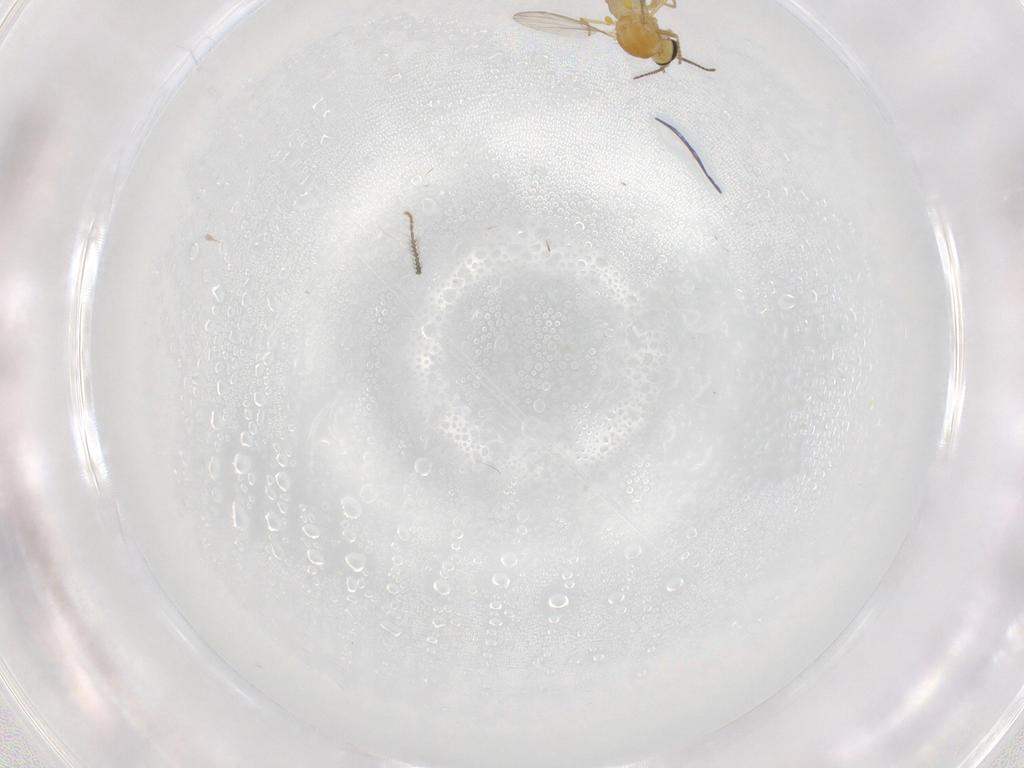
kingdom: Animalia
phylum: Arthropoda
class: Insecta
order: Diptera
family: Ceratopogonidae
